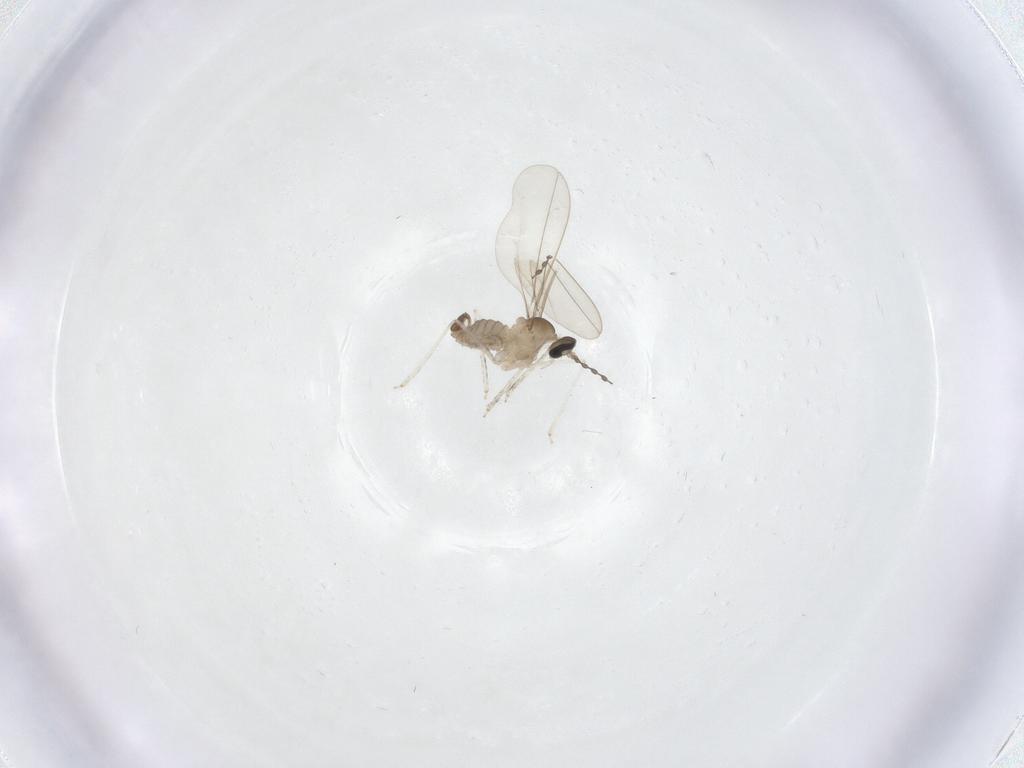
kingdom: Animalia
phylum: Arthropoda
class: Insecta
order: Diptera
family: Cecidomyiidae
